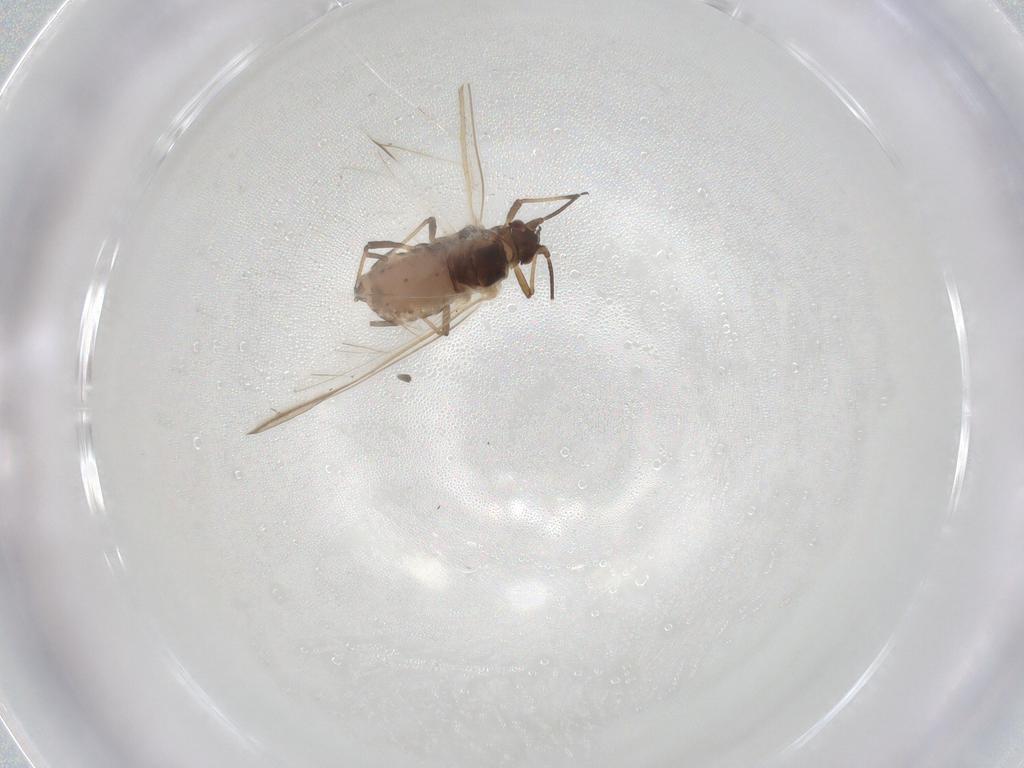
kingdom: Animalia
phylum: Arthropoda
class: Insecta
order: Hemiptera
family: Aphididae
